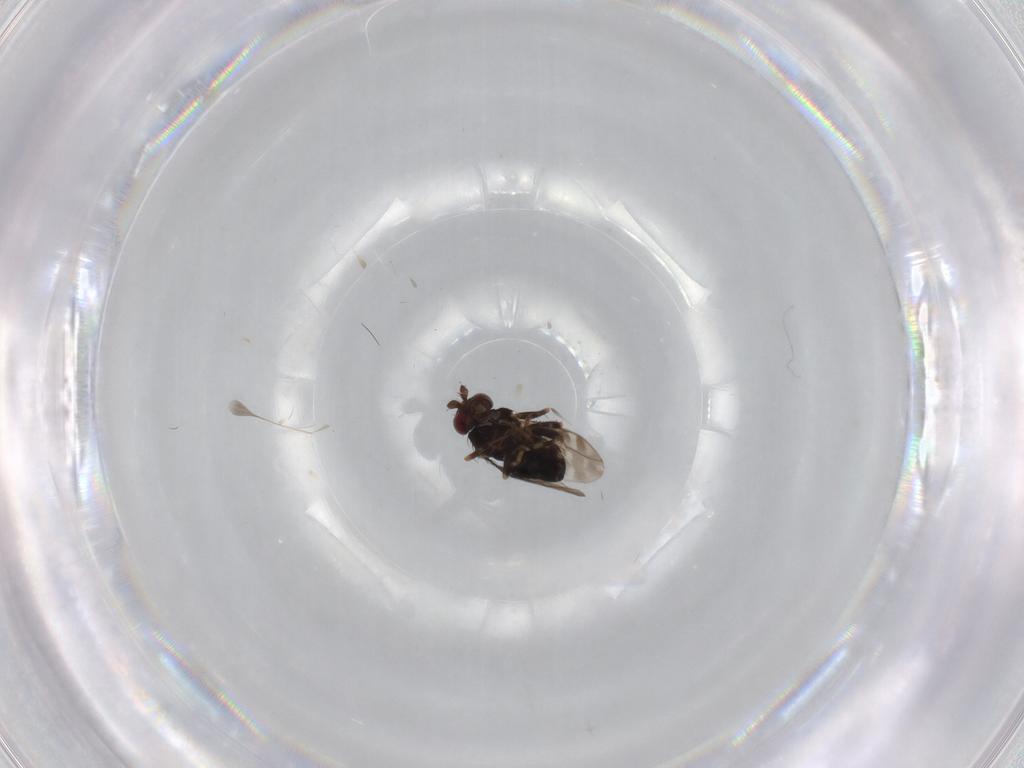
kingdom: Animalia
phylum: Arthropoda
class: Insecta
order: Diptera
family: Sphaeroceridae
